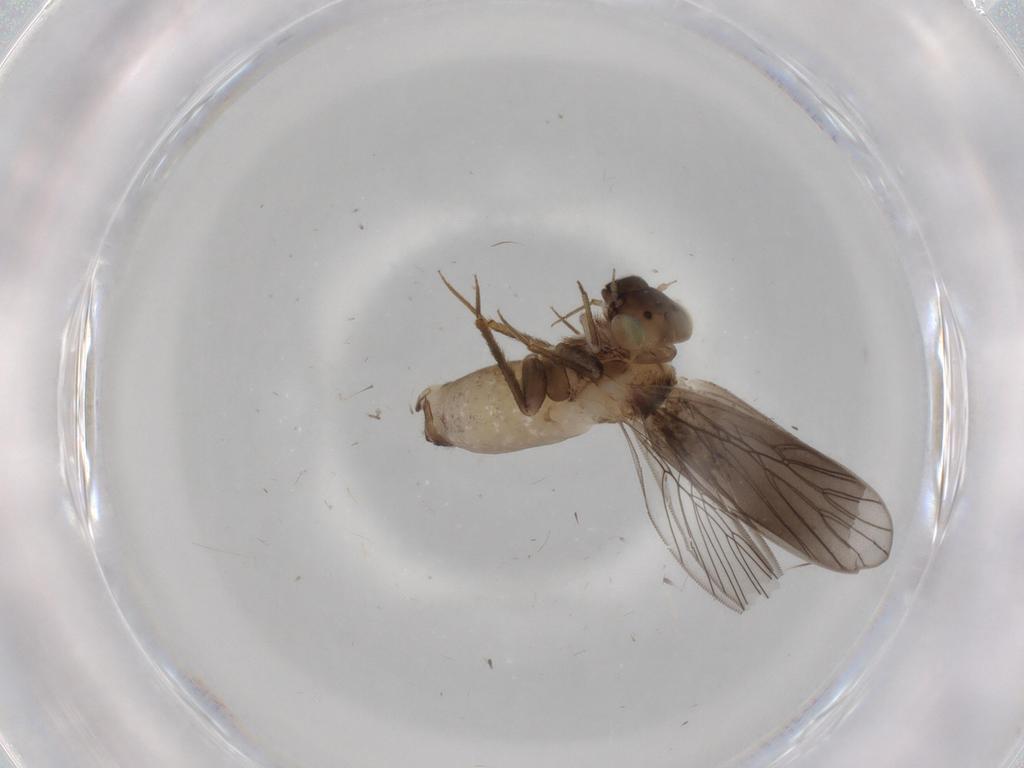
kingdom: Animalia
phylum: Arthropoda
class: Insecta
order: Psocodea
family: Lepidopsocidae
